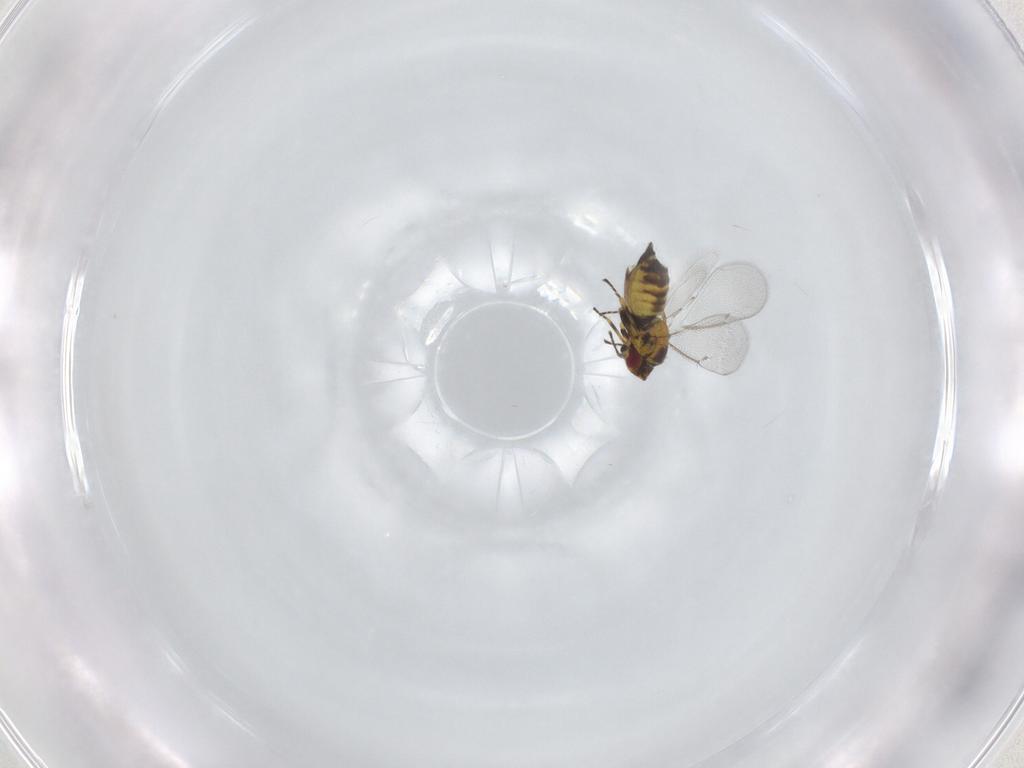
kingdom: Animalia
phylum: Arthropoda
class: Insecta
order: Hymenoptera
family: Eulophidae
